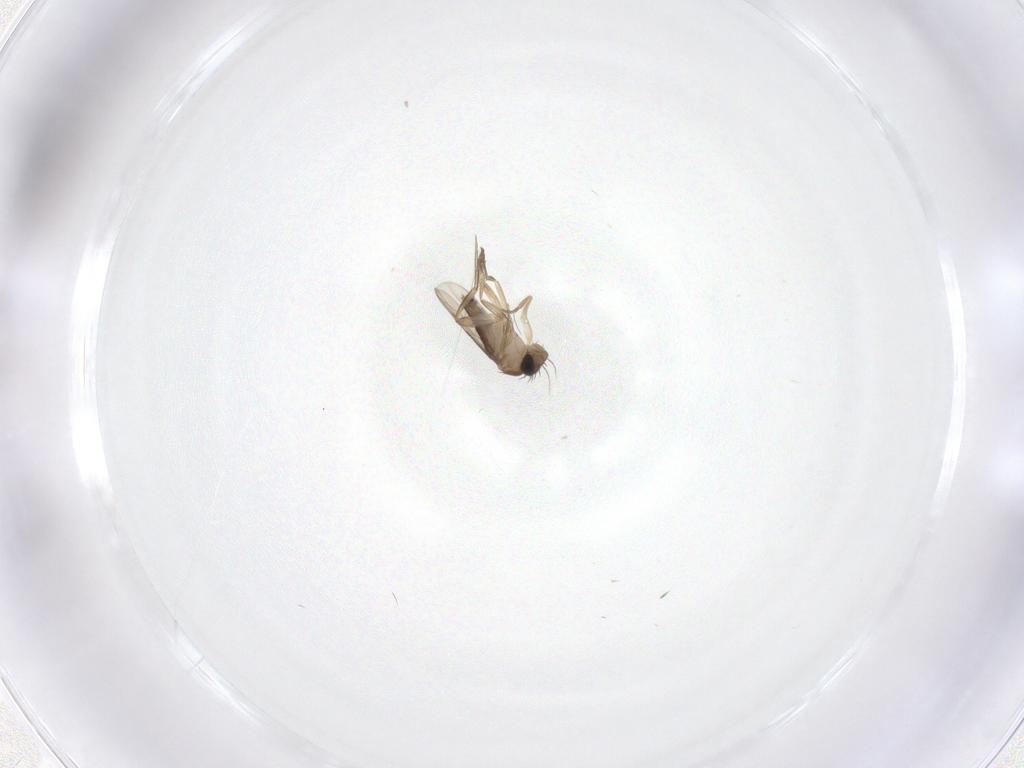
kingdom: Animalia
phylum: Arthropoda
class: Insecta
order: Diptera
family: Phoridae
